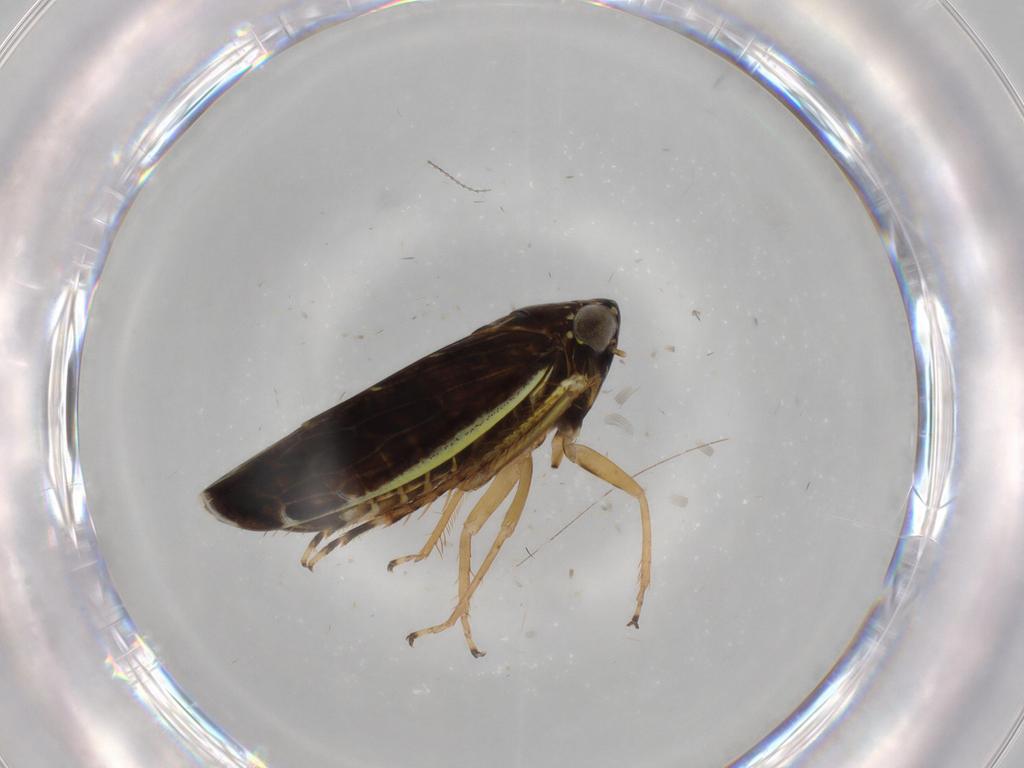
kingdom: Animalia
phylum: Arthropoda
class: Insecta
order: Hemiptera
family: Cicadellidae
